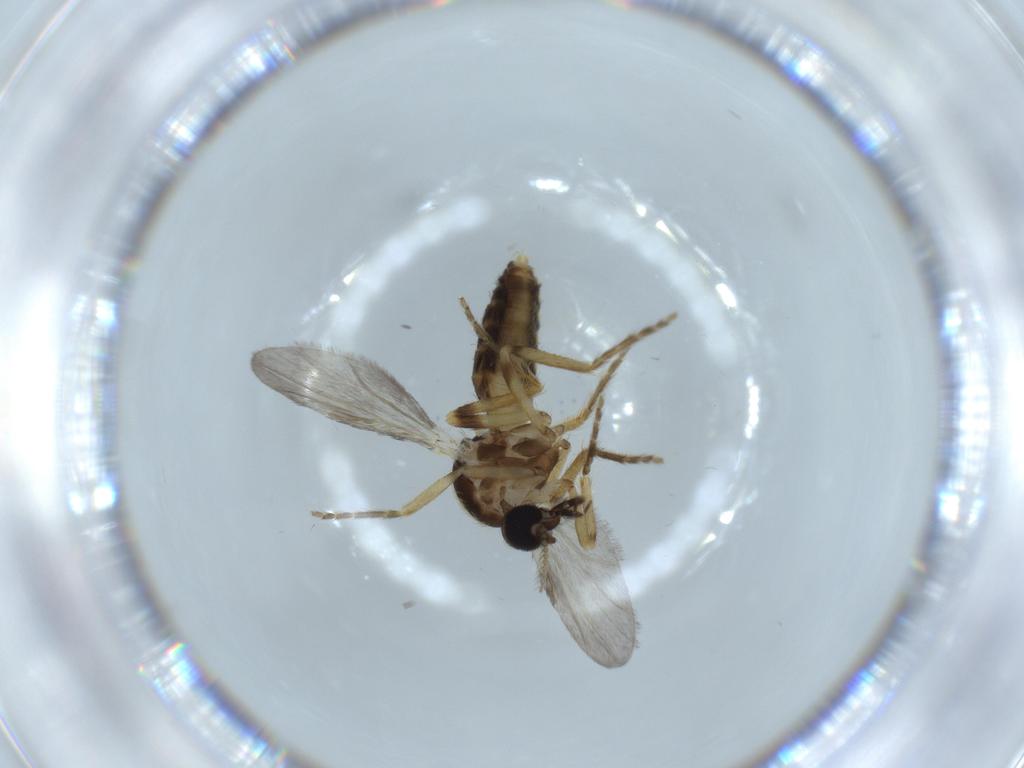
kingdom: Animalia
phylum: Arthropoda
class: Insecta
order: Diptera
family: Ceratopogonidae
